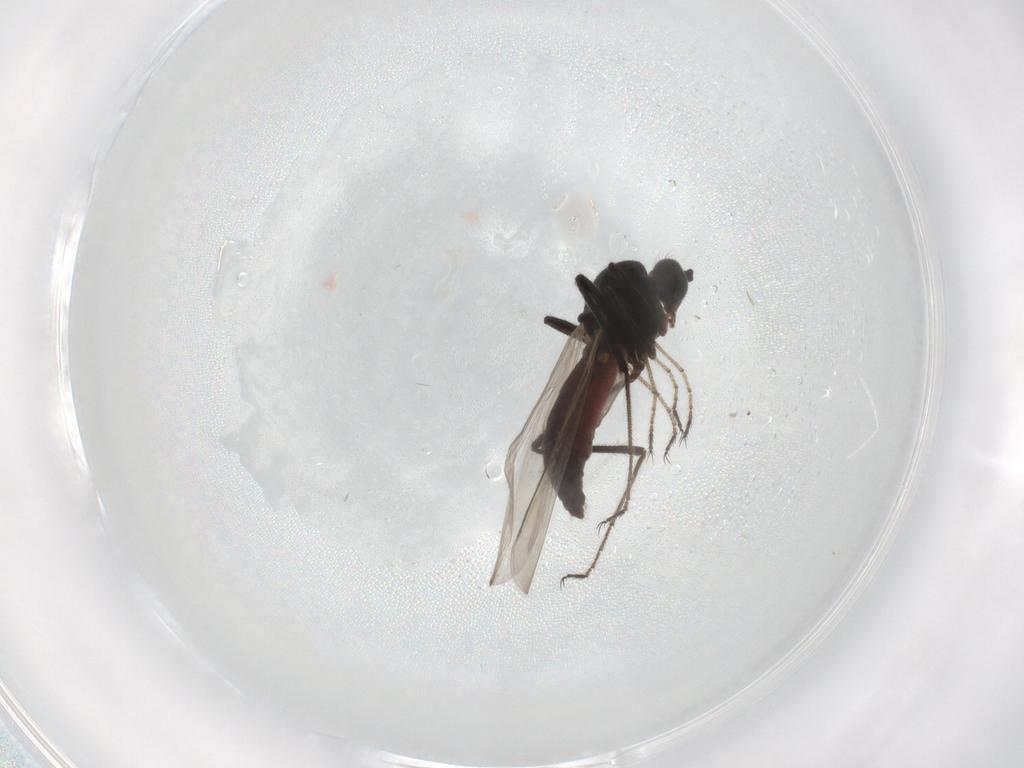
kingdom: Animalia
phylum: Arthropoda
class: Insecta
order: Diptera
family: Ceratopogonidae
